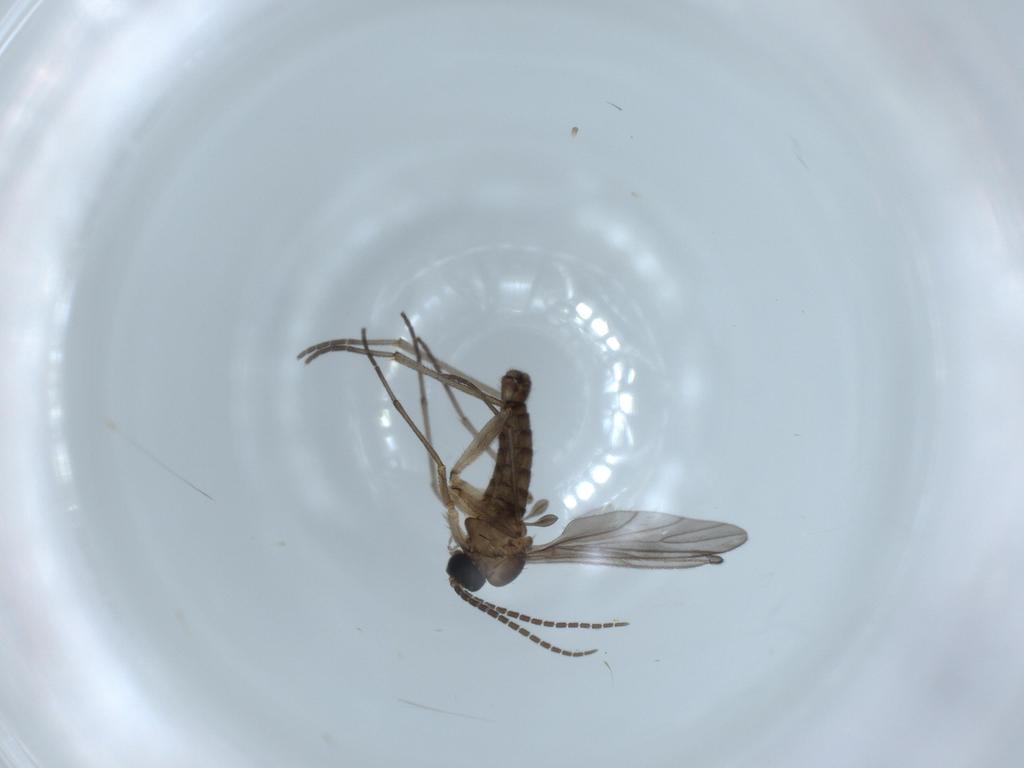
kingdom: Animalia
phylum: Arthropoda
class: Insecta
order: Diptera
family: Sciaridae
